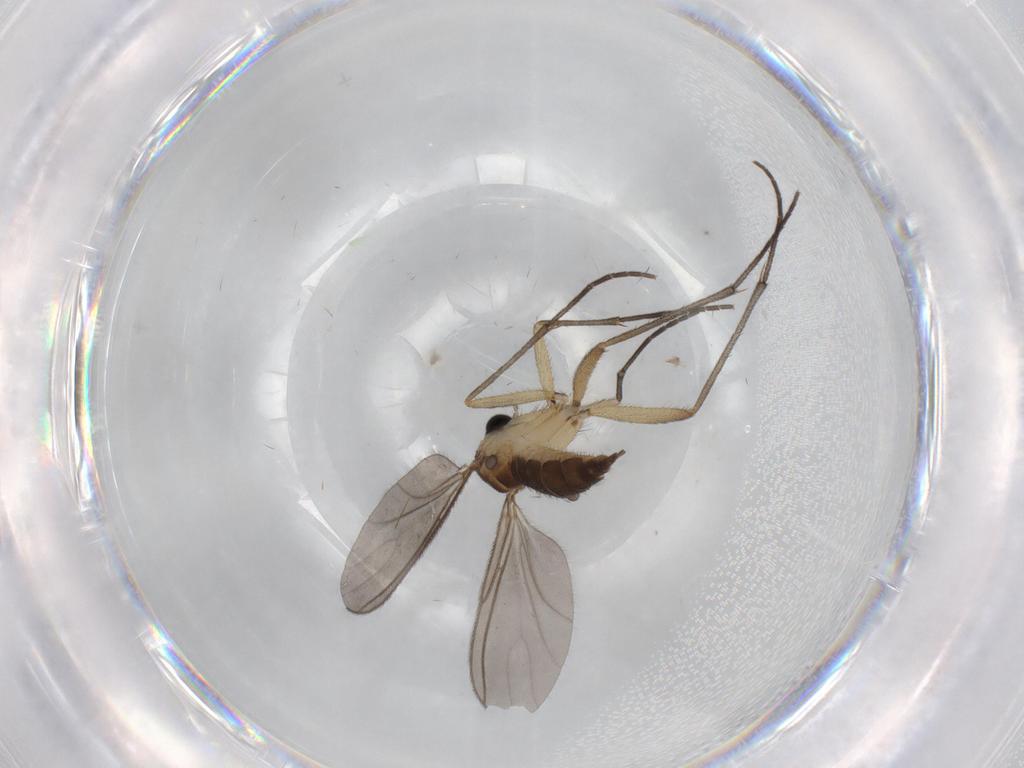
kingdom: Animalia
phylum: Arthropoda
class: Insecta
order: Diptera
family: Sciaridae
